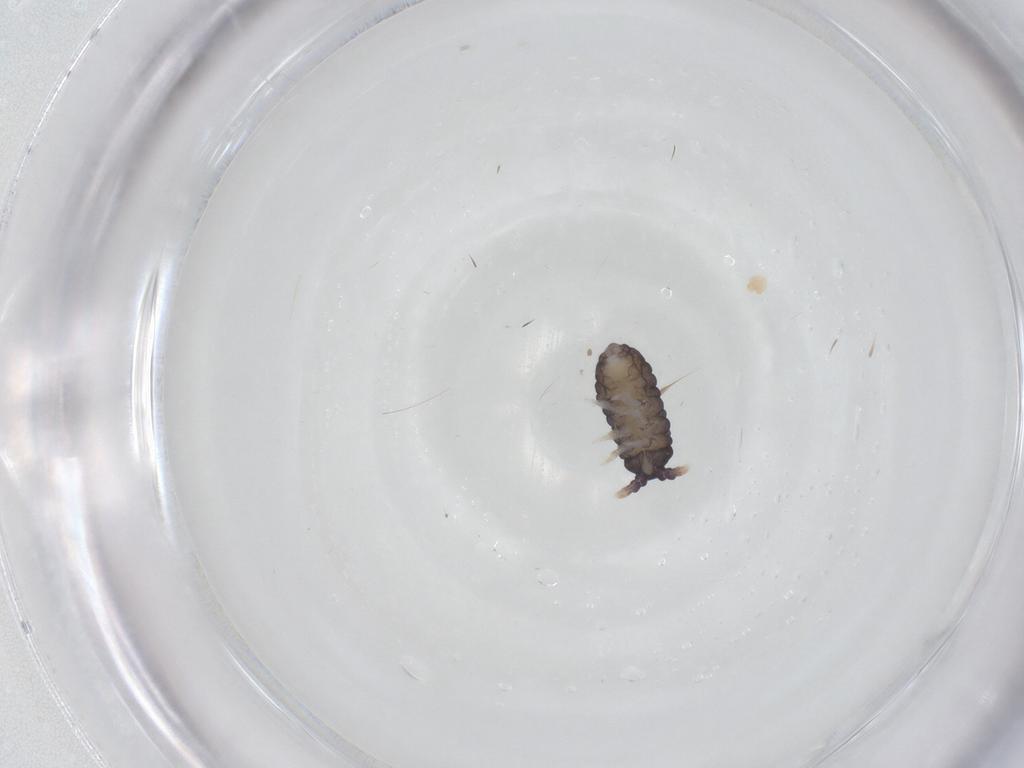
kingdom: Animalia
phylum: Arthropoda
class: Collembola
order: Poduromorpha
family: Neanuridae
